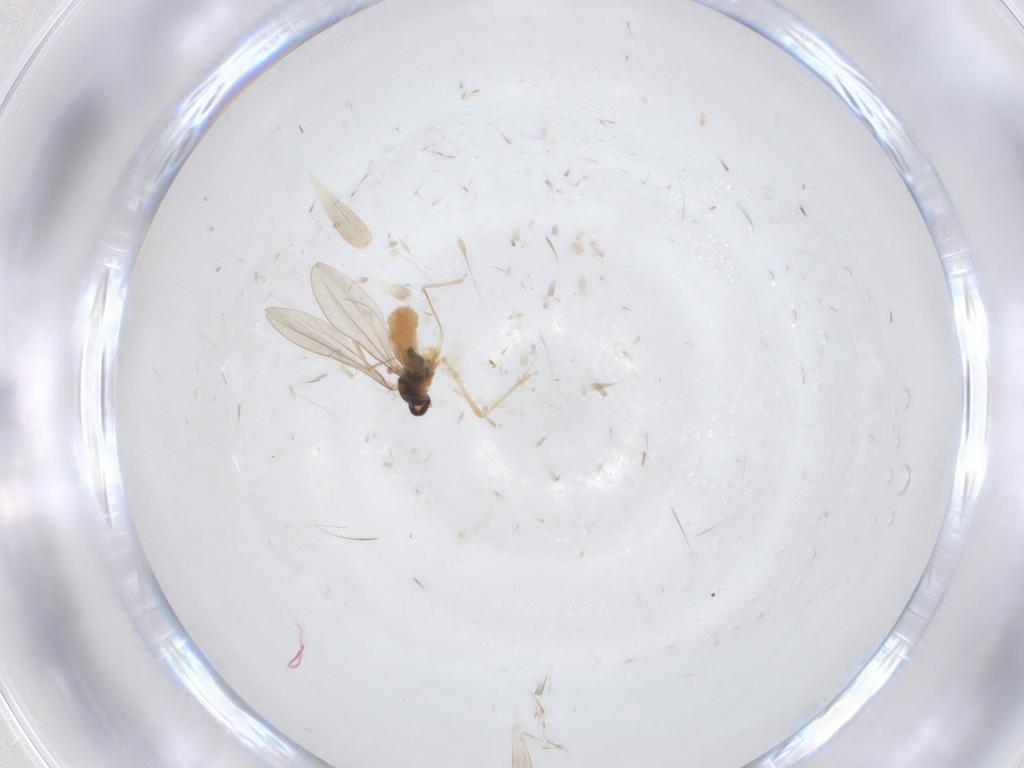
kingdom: Animalia
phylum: Arthropoda
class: Insecta
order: Diptera
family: Cecidomyiidae
